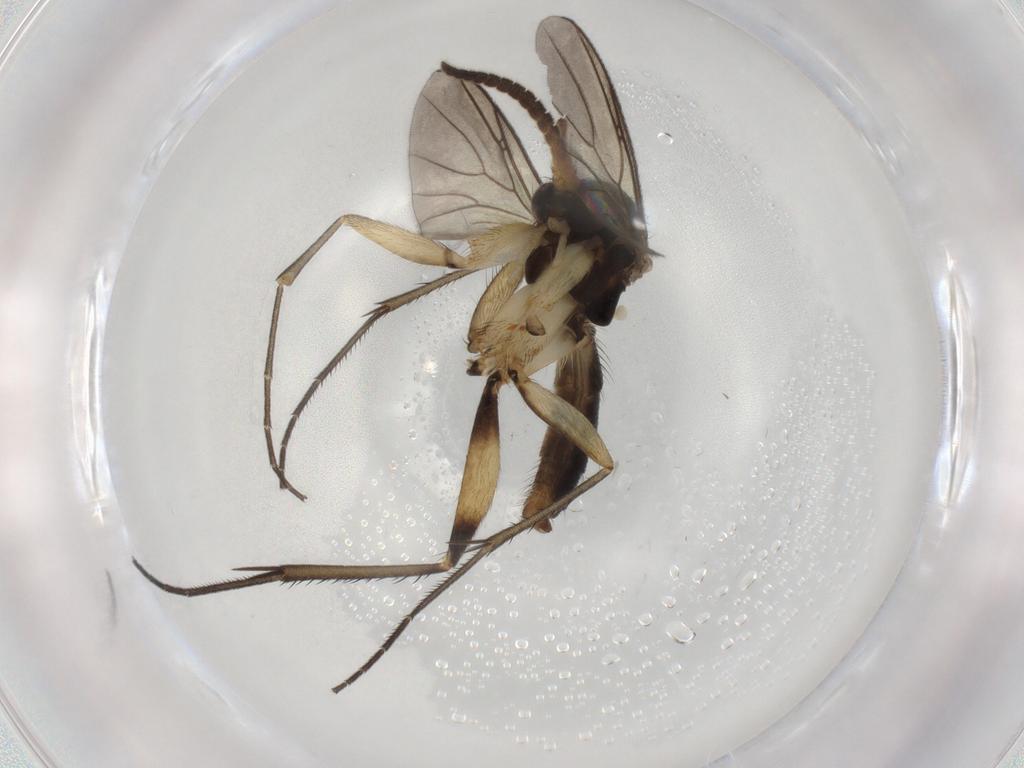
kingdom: Animalia
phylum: Arthropoda
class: Insecta
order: Diptera
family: Cecidomyiidae
